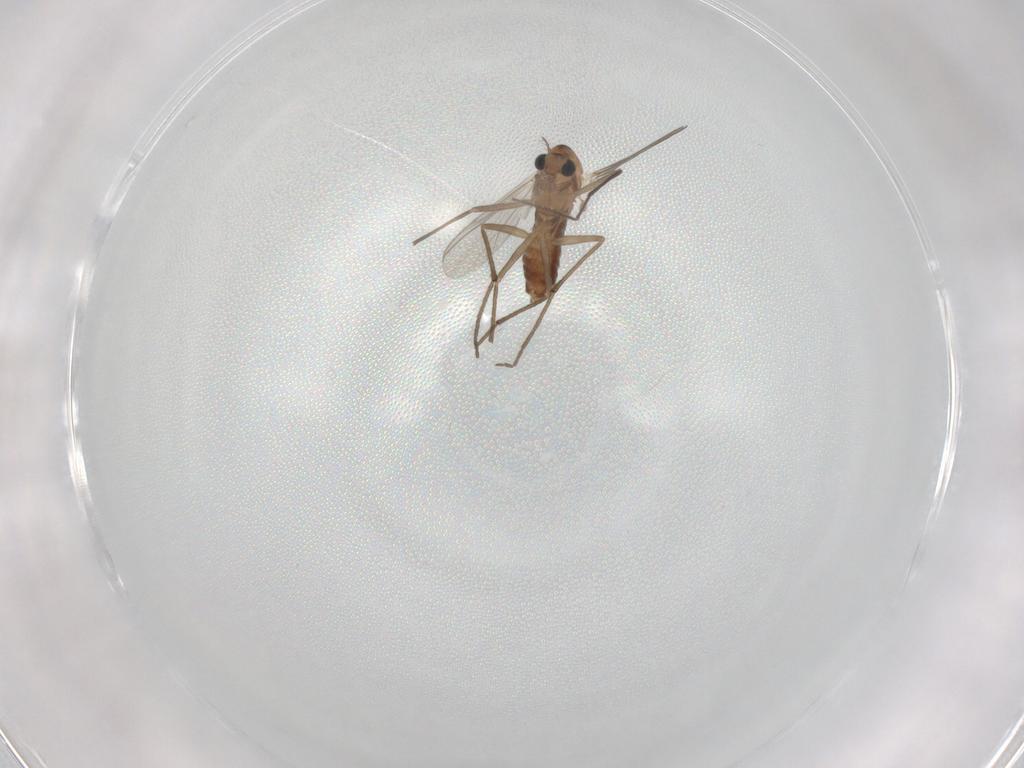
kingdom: Animalia
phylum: Arthropoda
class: Insecta
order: Diptera
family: Chironomidae
